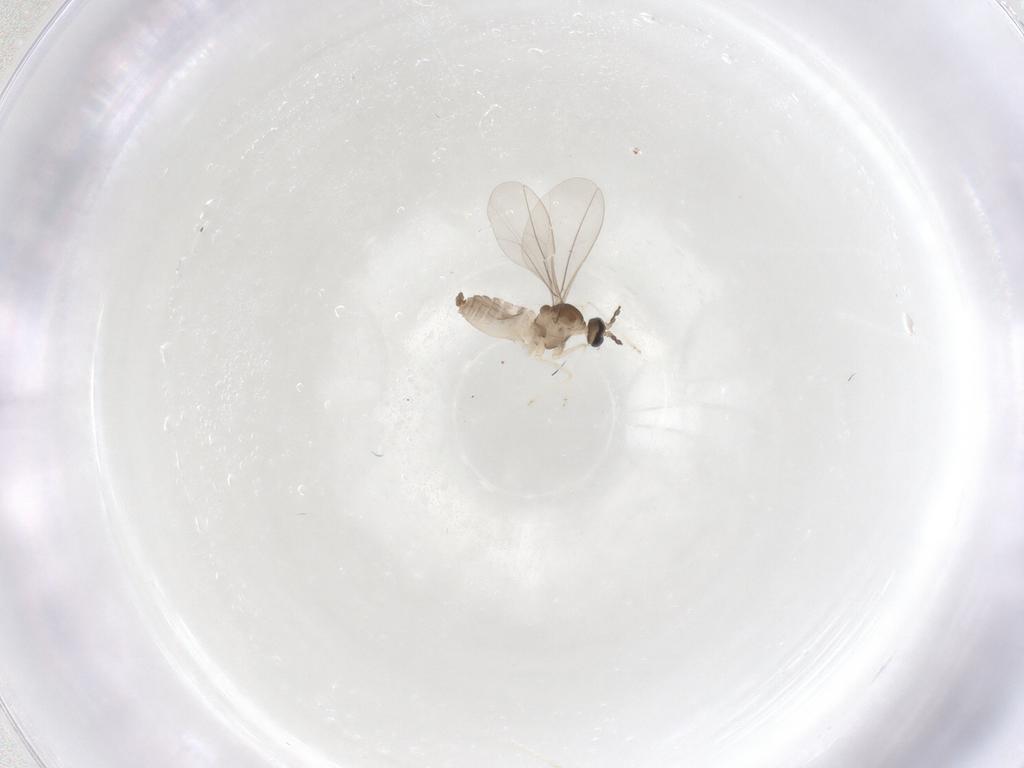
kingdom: Animalia
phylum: Arthropoda
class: Insecta
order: Diptera
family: Cecidomyiidae
